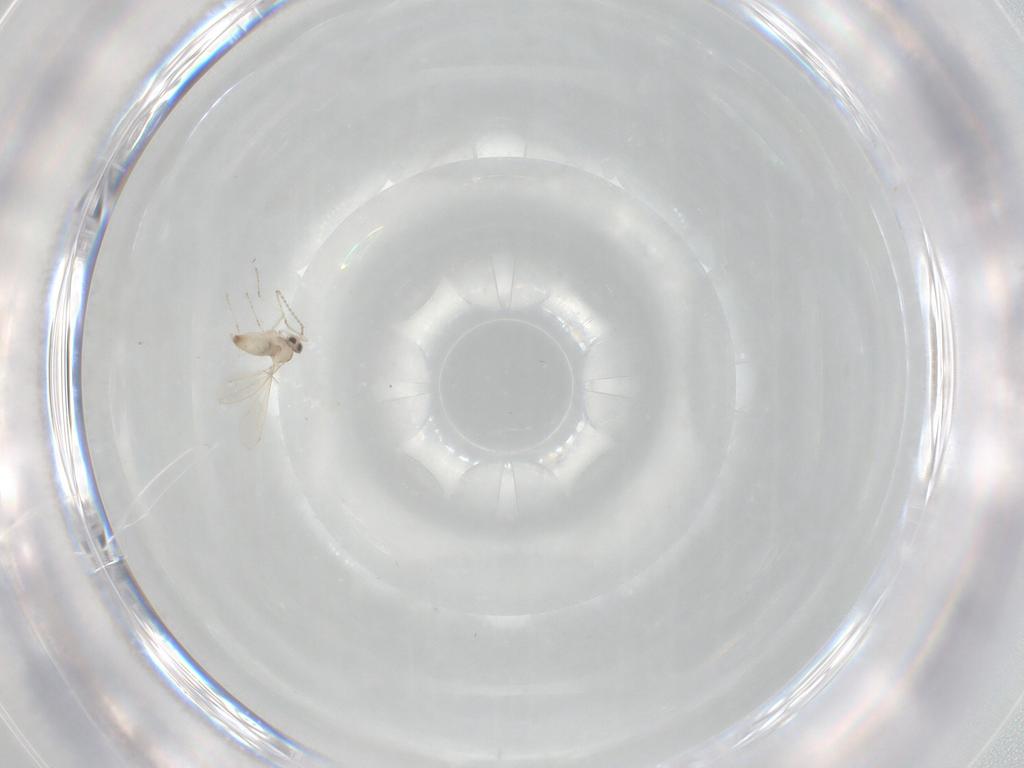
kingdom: Animalia
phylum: Arthropoda
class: Insecta
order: Diptera
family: Cecidomyiidae
